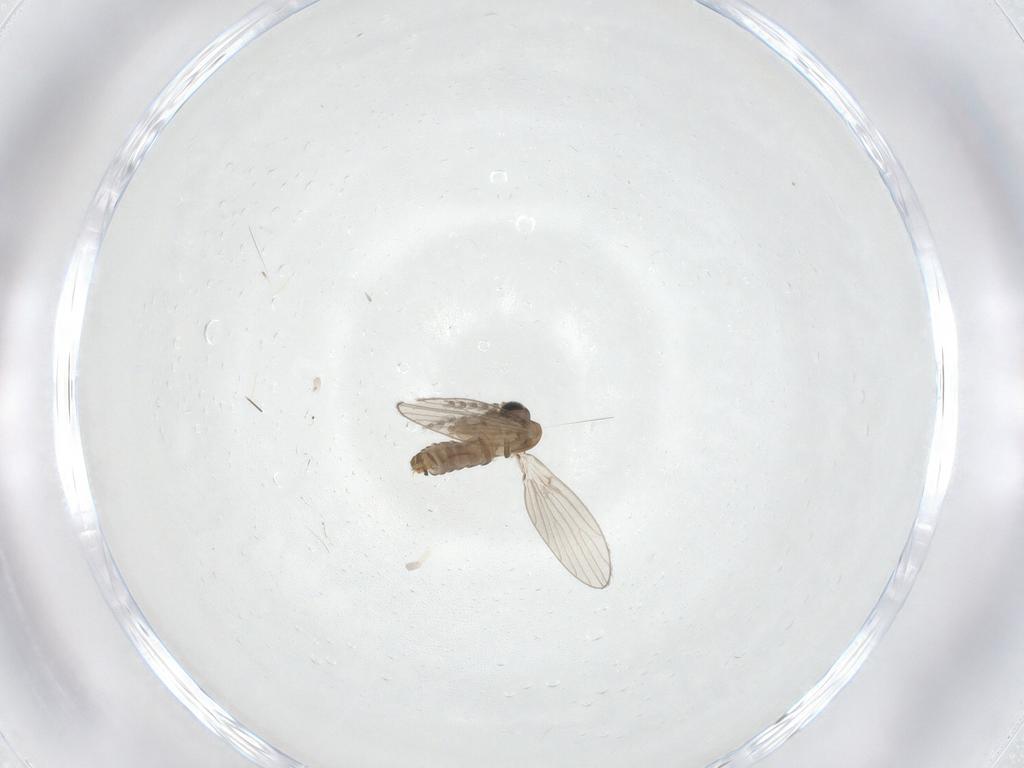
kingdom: Animalia
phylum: Arthropoda
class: Insecta
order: Diptera
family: Psychodidae
